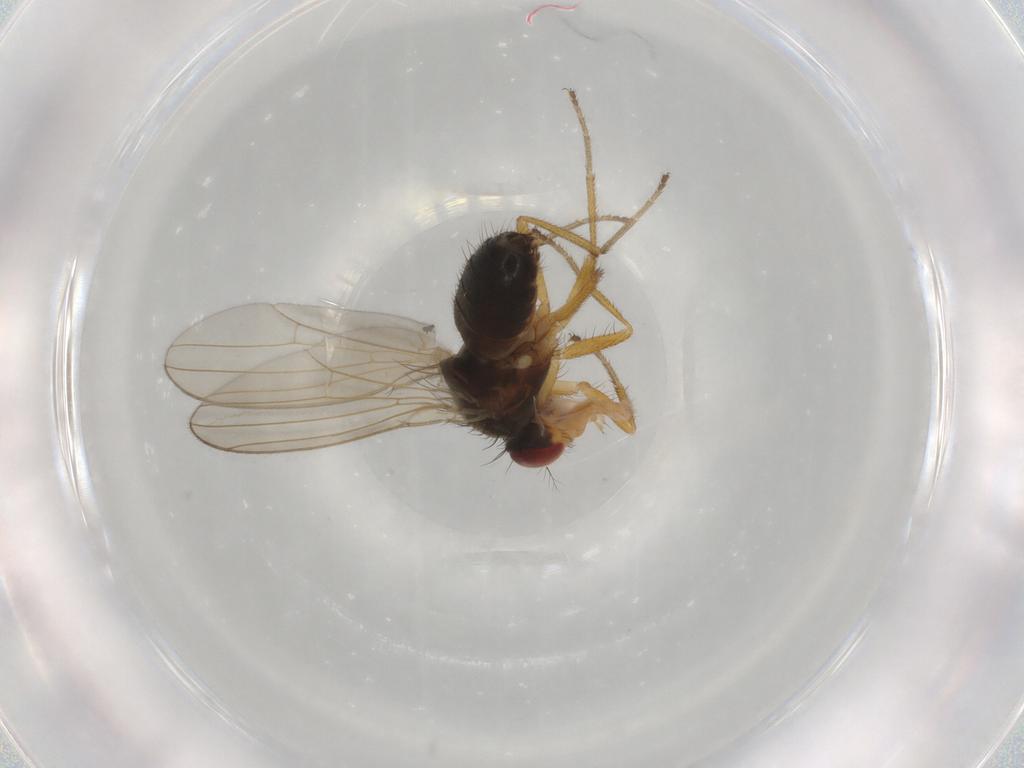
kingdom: Animalia
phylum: Arthropoda
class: Insecta
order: Diptera
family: Drosophilidae
